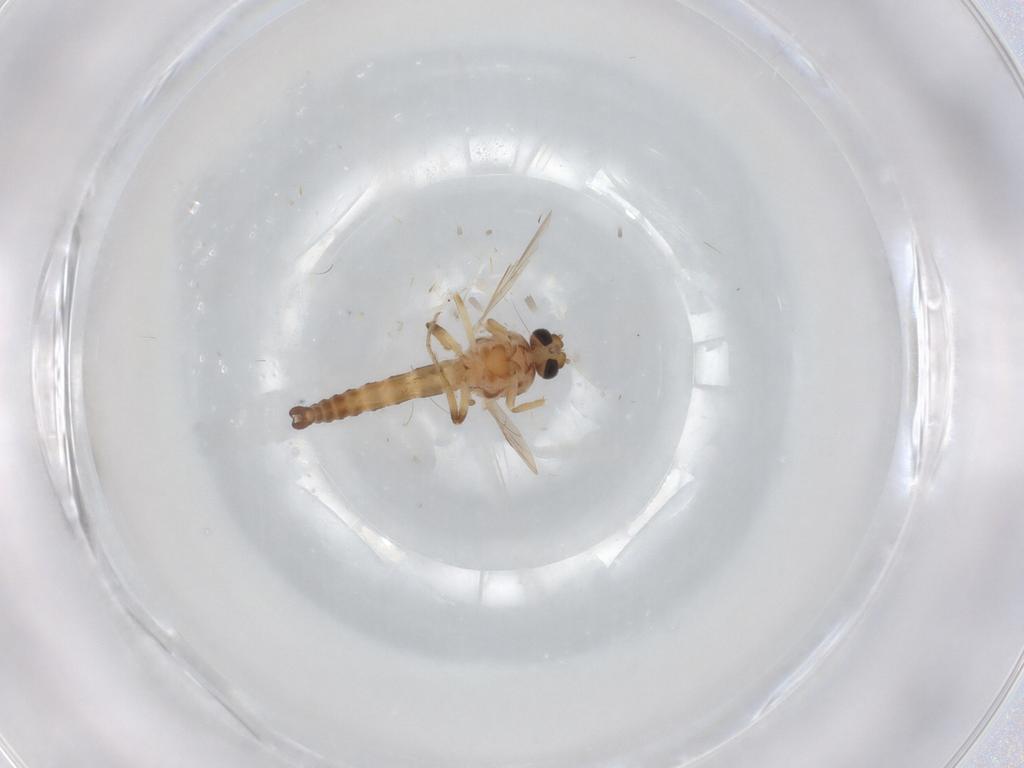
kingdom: Animalia
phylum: Arthropoda
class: Insecta
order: Diptera
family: Ceratopogonidae
